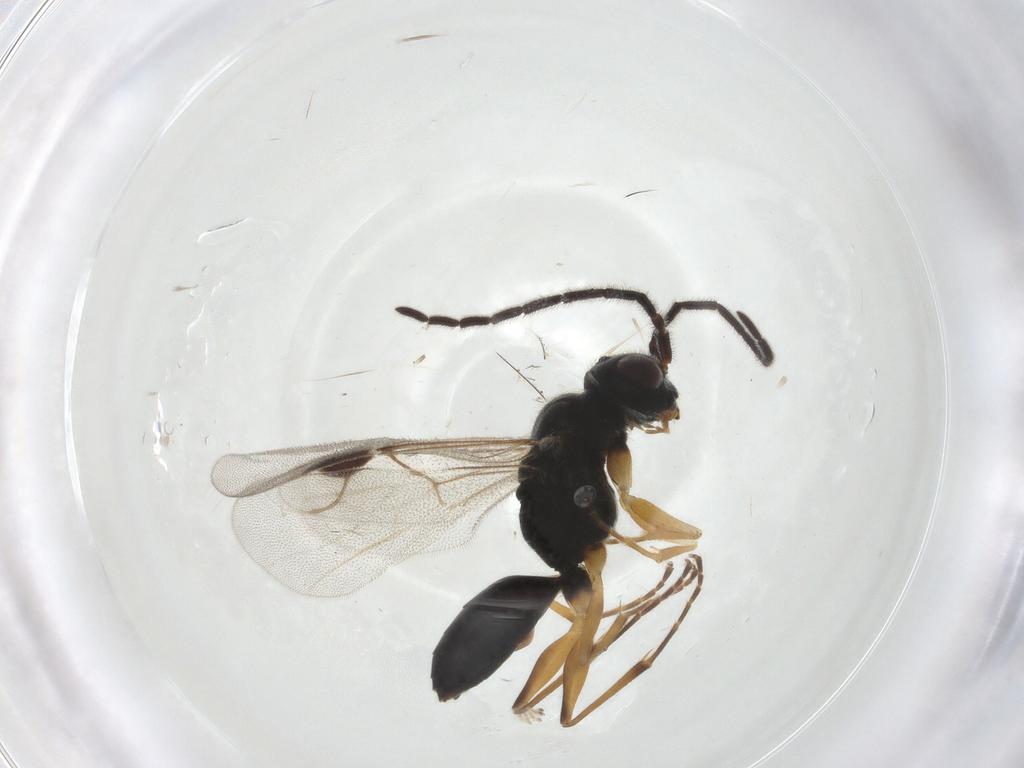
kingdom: Animalia
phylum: Arthropoda
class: Insecta
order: Hymenoptera
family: Dryinidae
